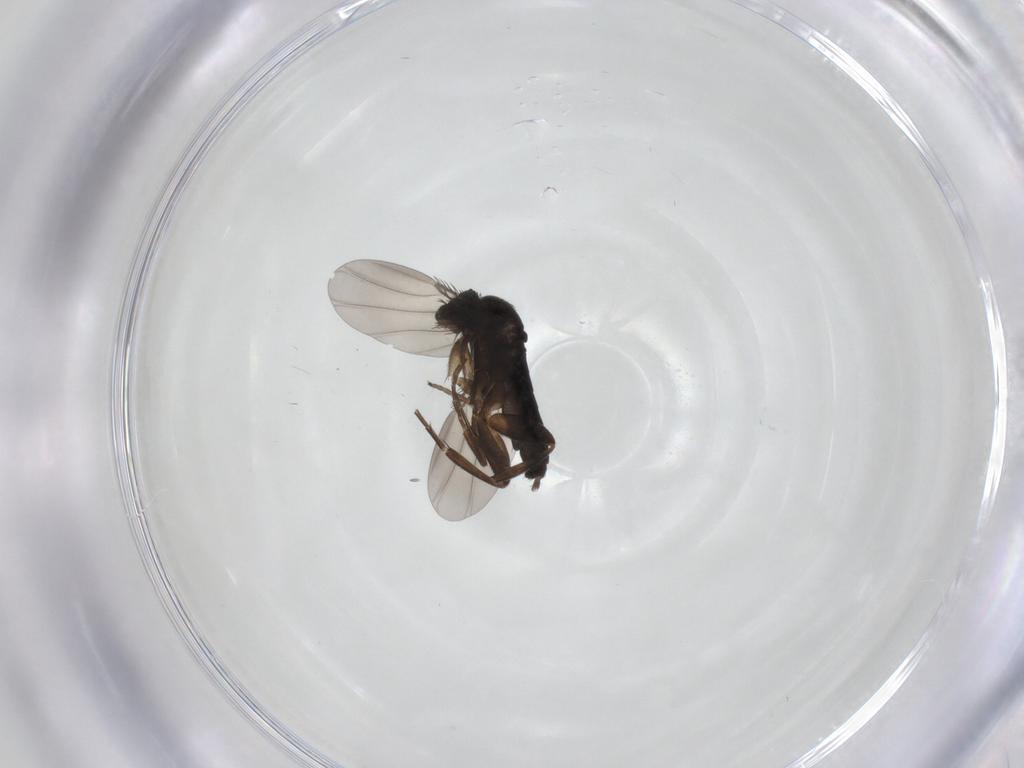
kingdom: Animalia
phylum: Arthropoda
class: Insecta
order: Diptera
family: Phoridae
